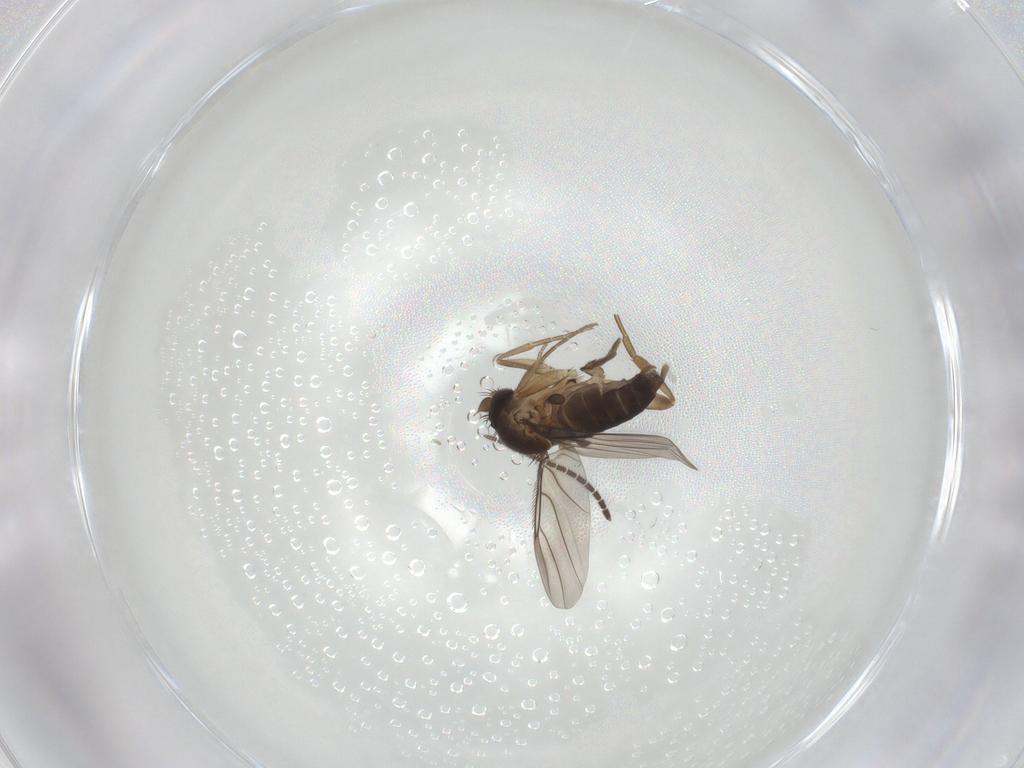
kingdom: Animalia
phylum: Arthropoda
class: Insecta
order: Diptera
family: Phoridae
